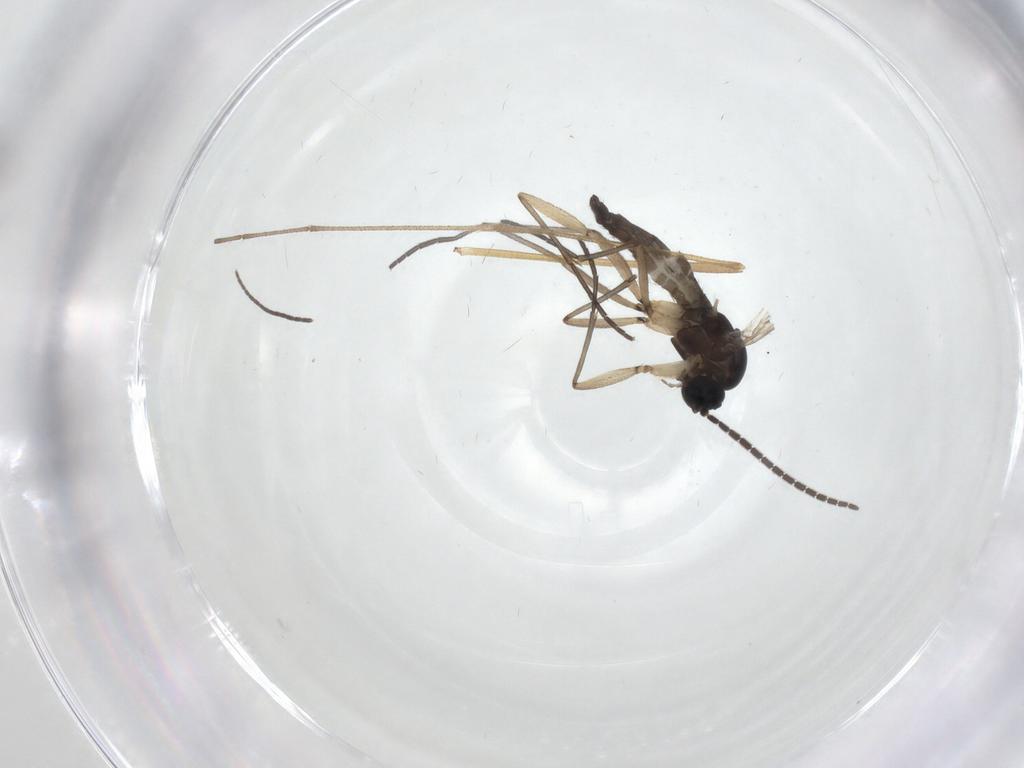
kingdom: Animalia
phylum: Arthropoda
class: Insecta
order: Diptera
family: Sciaridae
